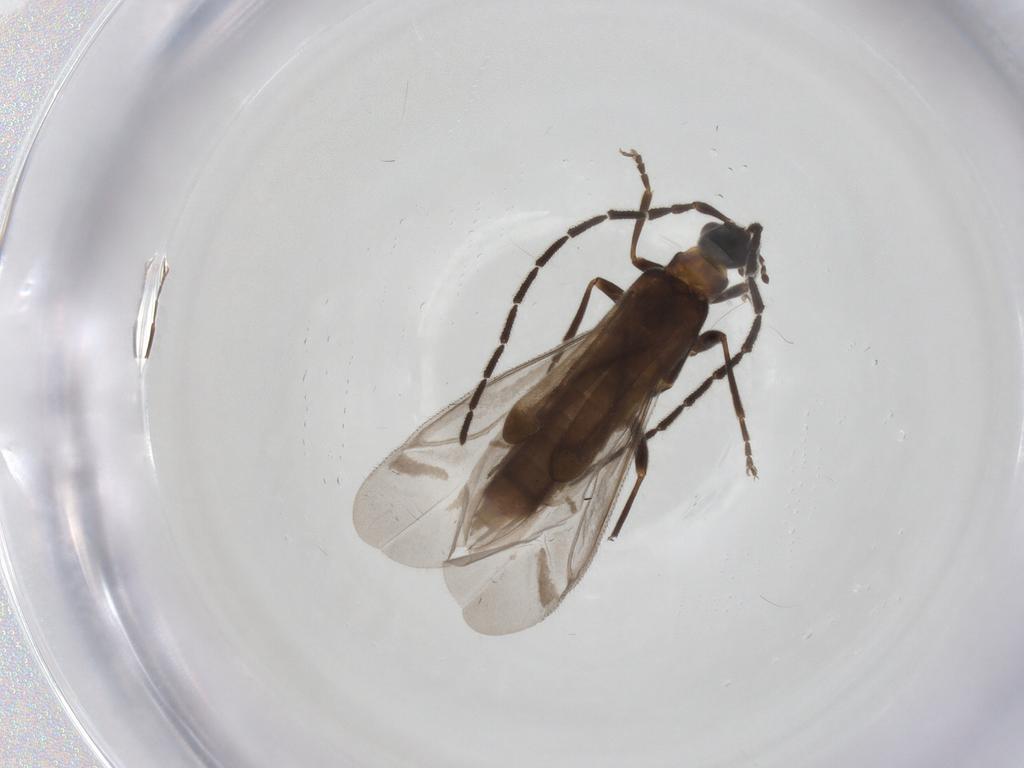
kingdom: Animalia
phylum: Arthropoda
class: Insecta
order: Coleoptera
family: Cantharidae
